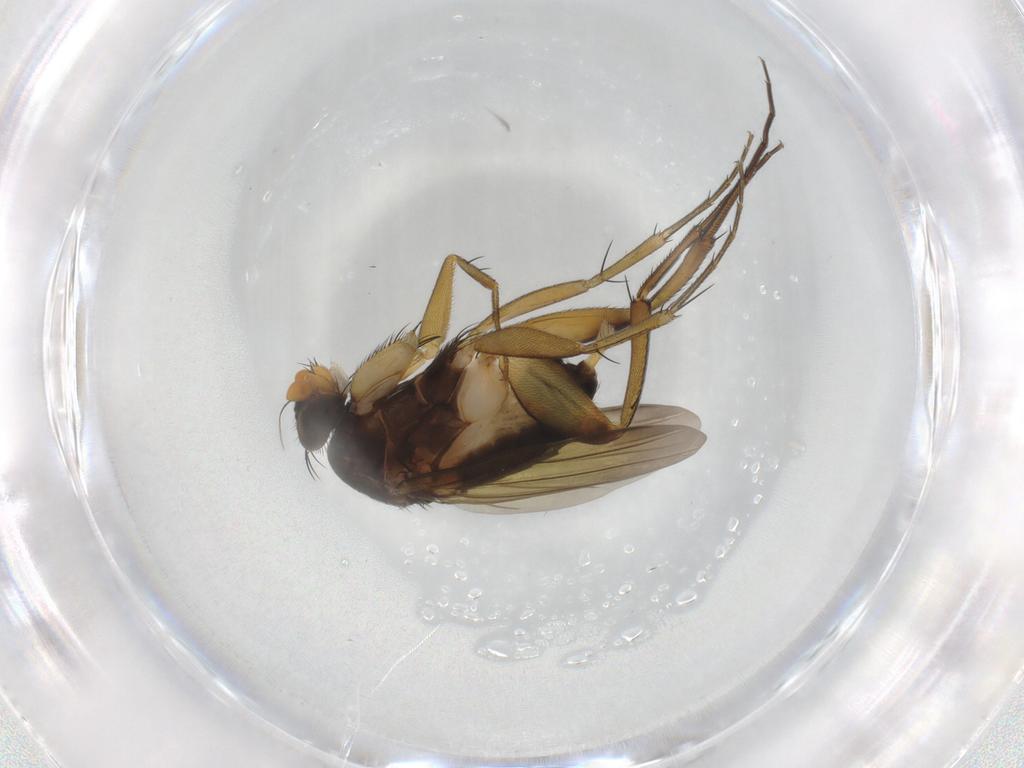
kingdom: Animalia
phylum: Arthropoda
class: Insecta
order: Diptera
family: Phoridae
